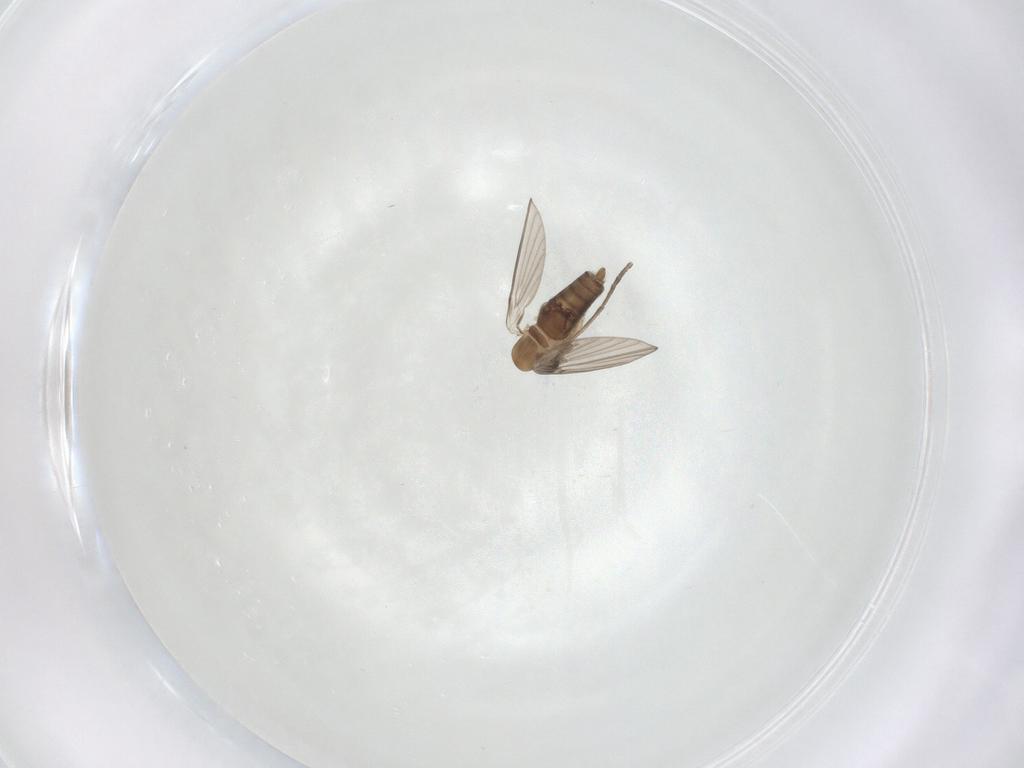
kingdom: Animalia
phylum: Arthropoda
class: Insecta
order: Diptera
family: Psychodidae
